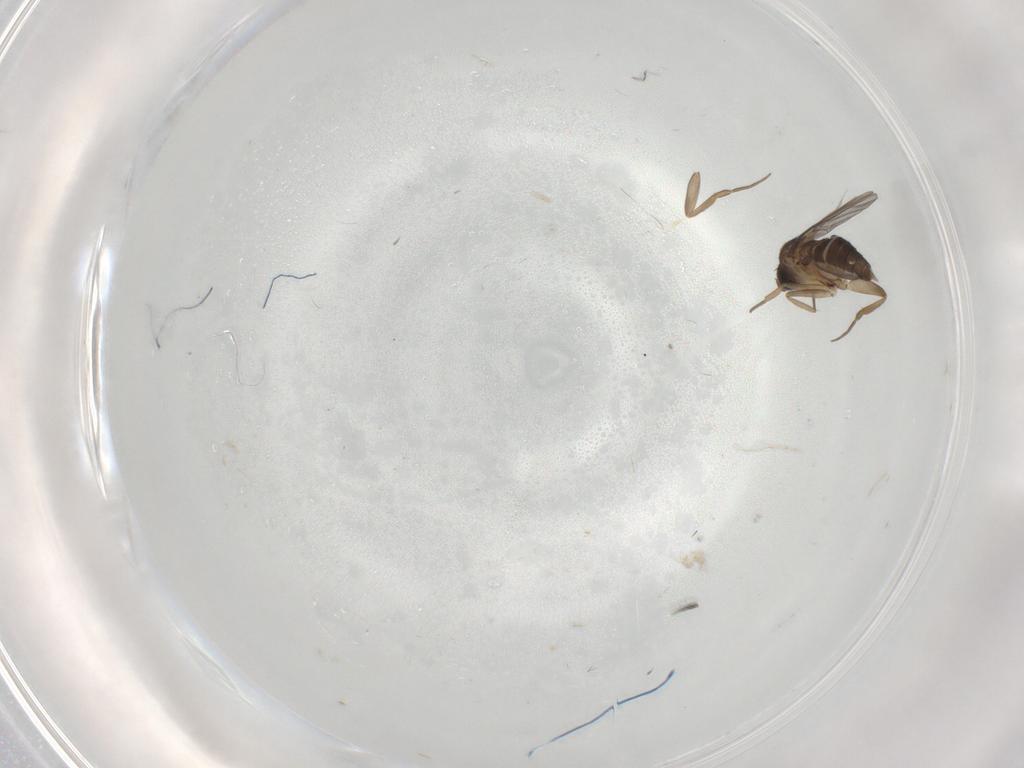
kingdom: Animalia
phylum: Arthropoda
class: Insecta
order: Diptera
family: Phoridae
